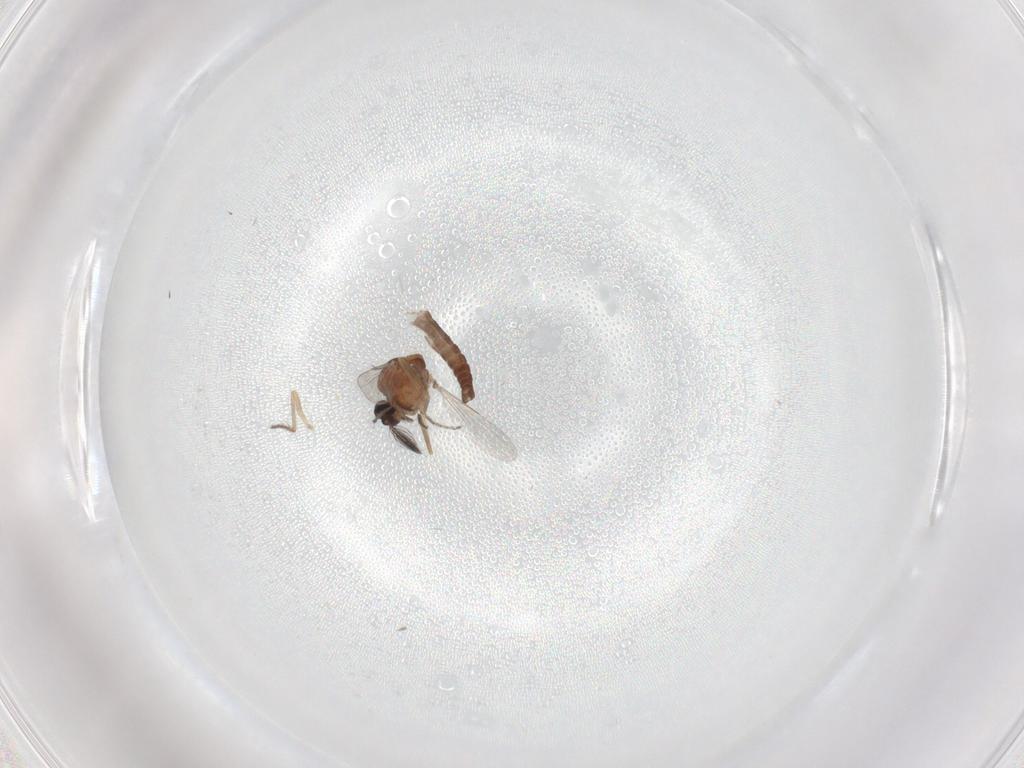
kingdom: Animalia
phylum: Arthropoda
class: Insecta
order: Diptera
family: Ceratopogonidae
